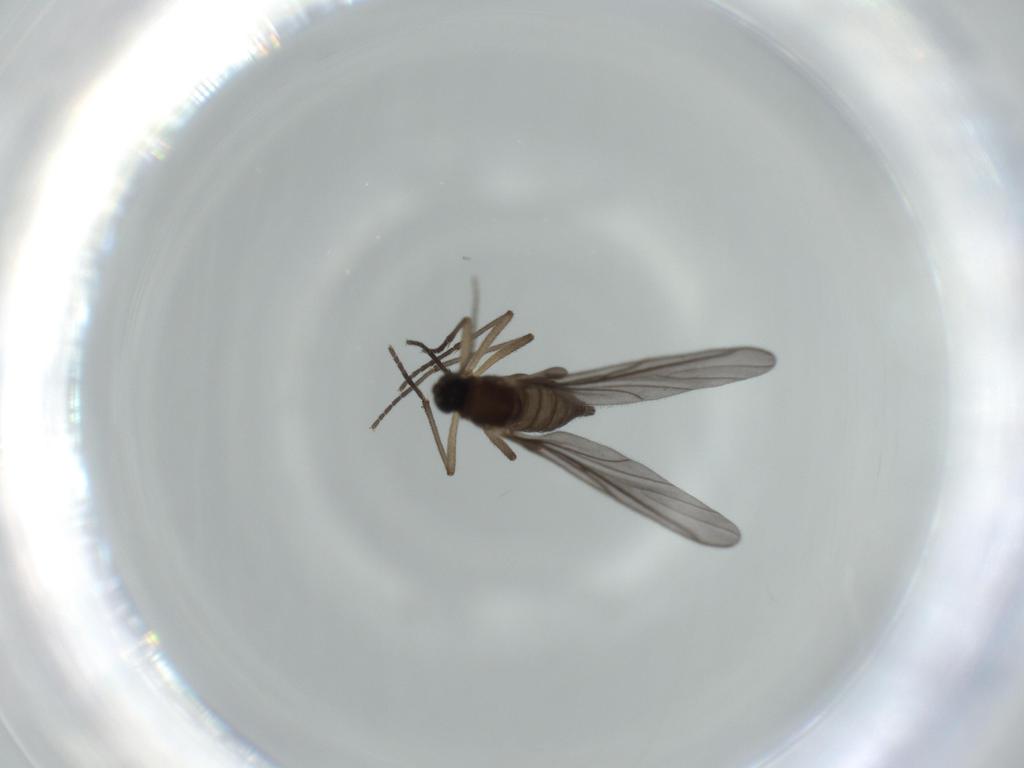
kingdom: Animalia
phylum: Arthropoda
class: Insecta
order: Diptera
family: Sciaridae
